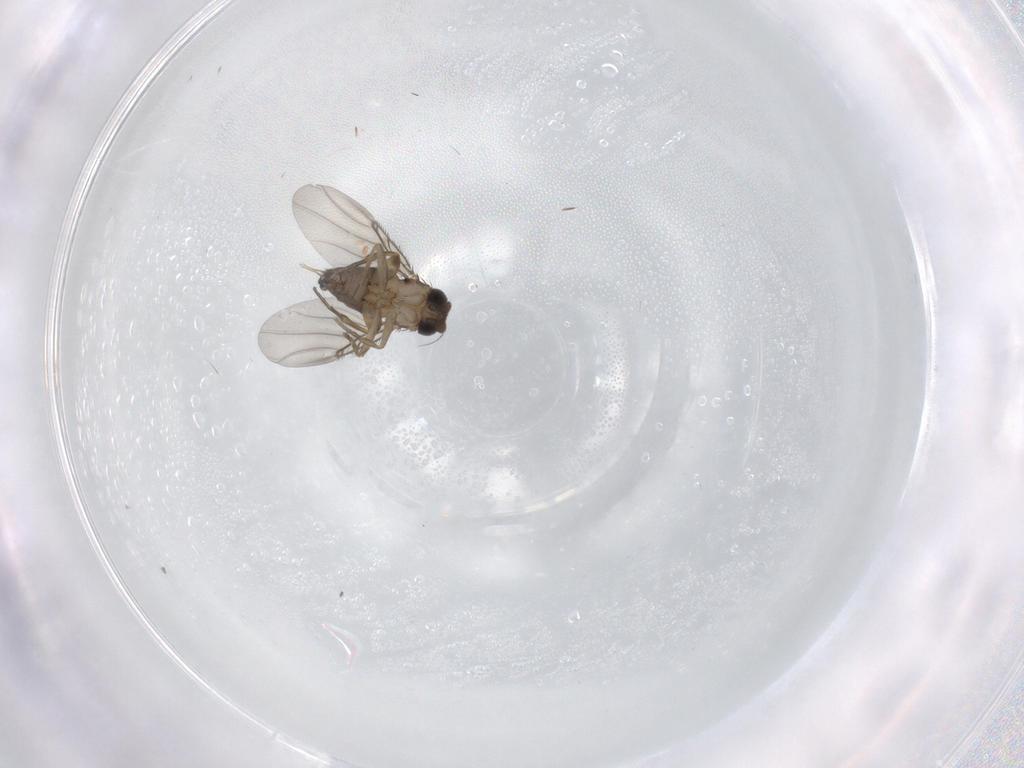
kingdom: Animalia
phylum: Arthropoda
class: Insecta
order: Diptera
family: Phoridae
